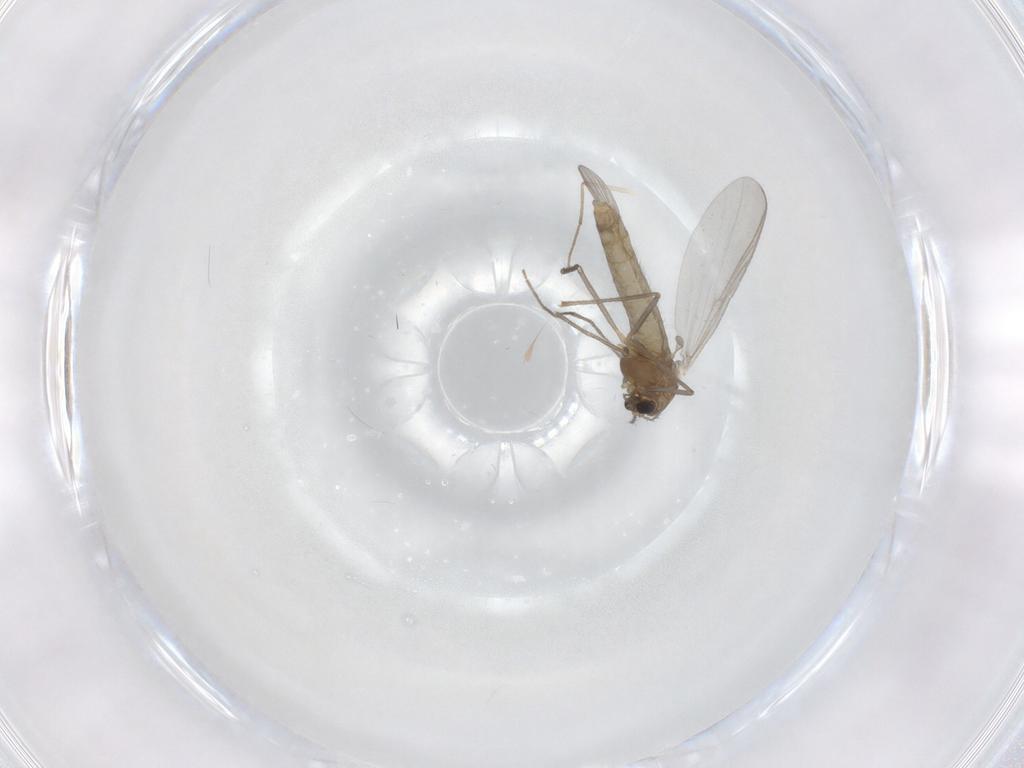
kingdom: Animalia
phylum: Arthropoda
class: Insecta
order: Diptera
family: Chironomidae
